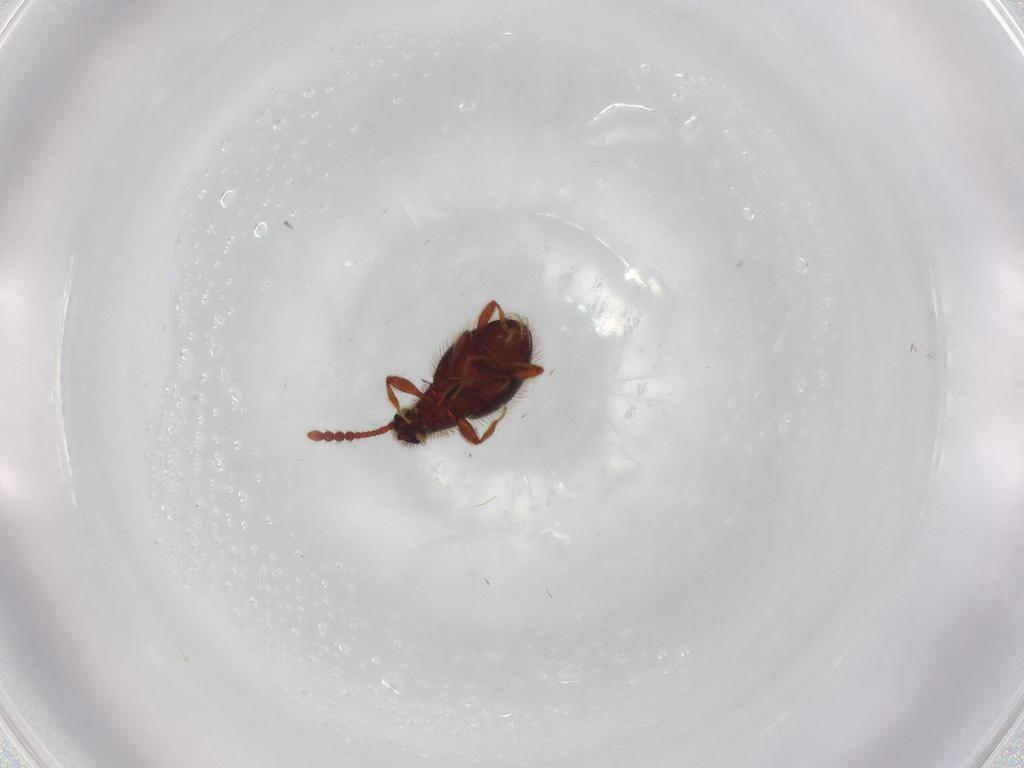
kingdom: Animalia
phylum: Arthropoda
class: Insecta
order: Coleoptera
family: Staphylinidae
